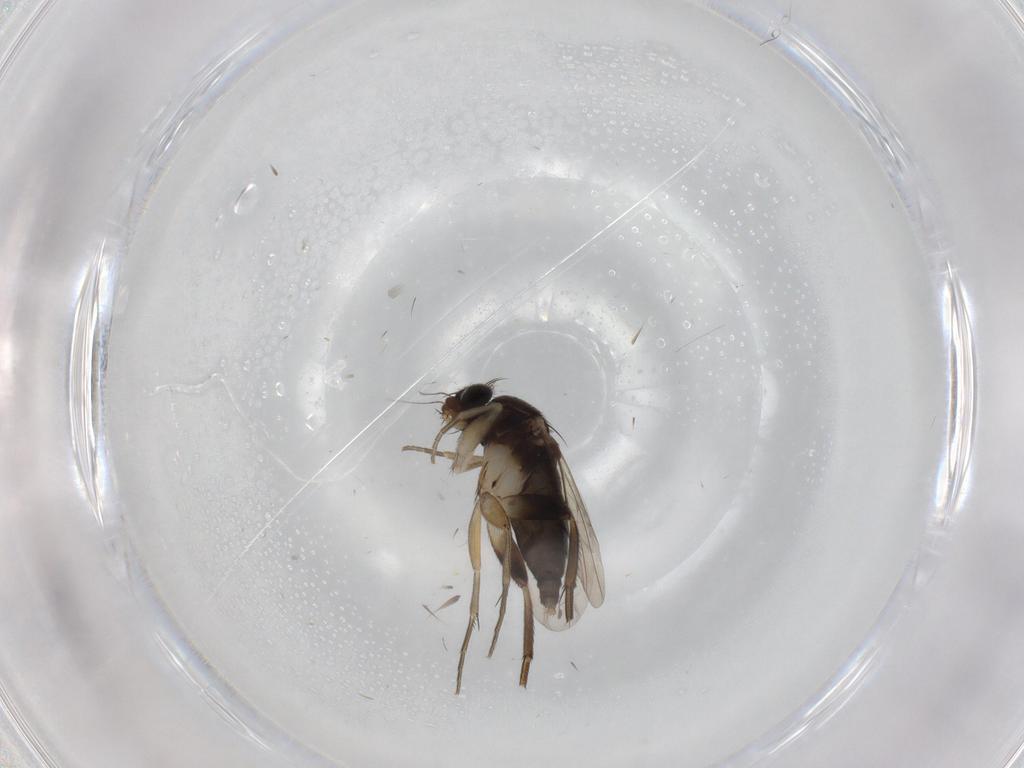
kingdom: Animalia
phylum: Arthropoda
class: Insecta
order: Diptera
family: Phoridae
